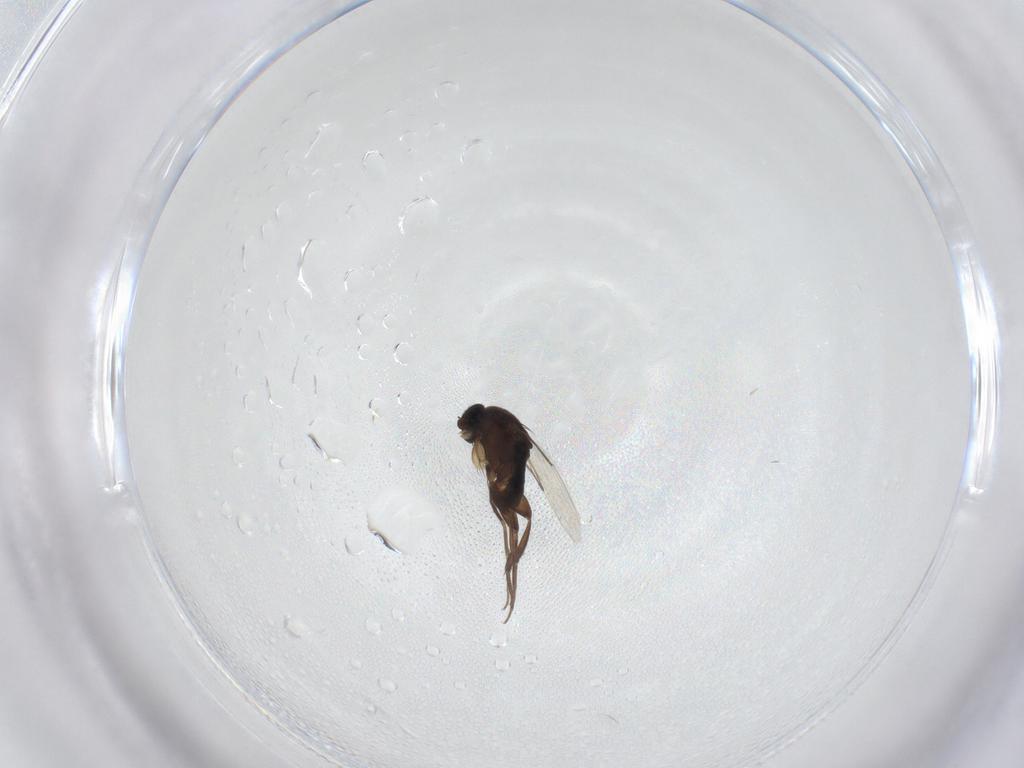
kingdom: Animalia
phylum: Arthropoda
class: Insecta
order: Diptera
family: Phoridae
